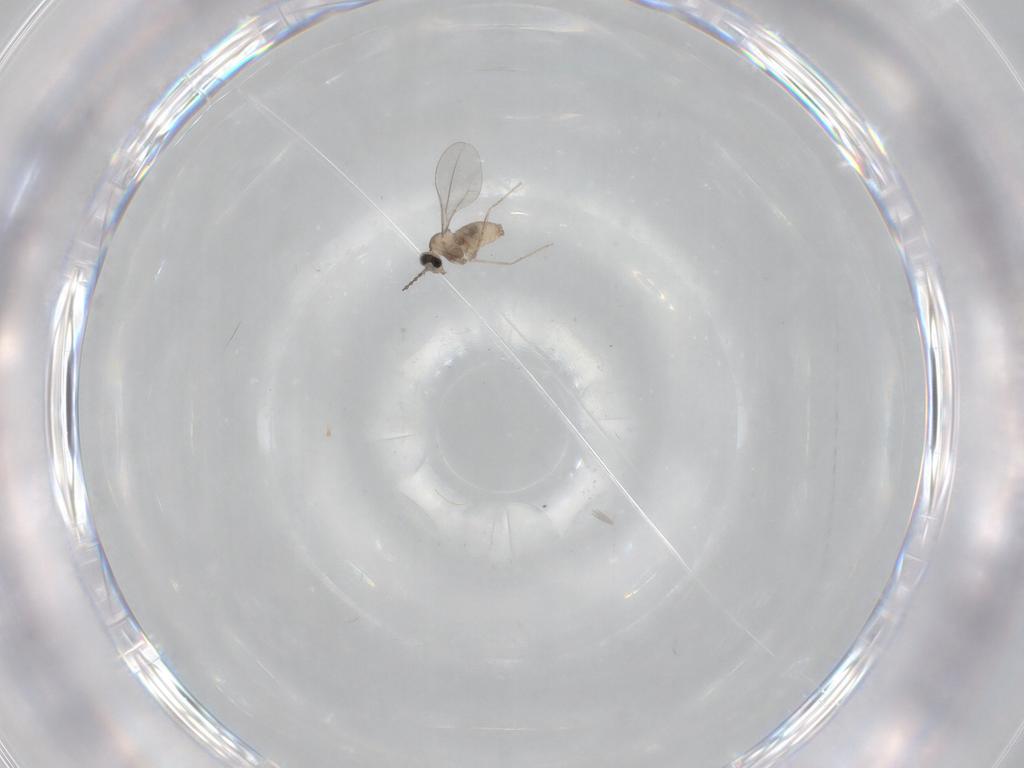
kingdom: Animalia
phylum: Arthropoda
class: Insecta
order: Diptera
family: Cecidomyiidae
